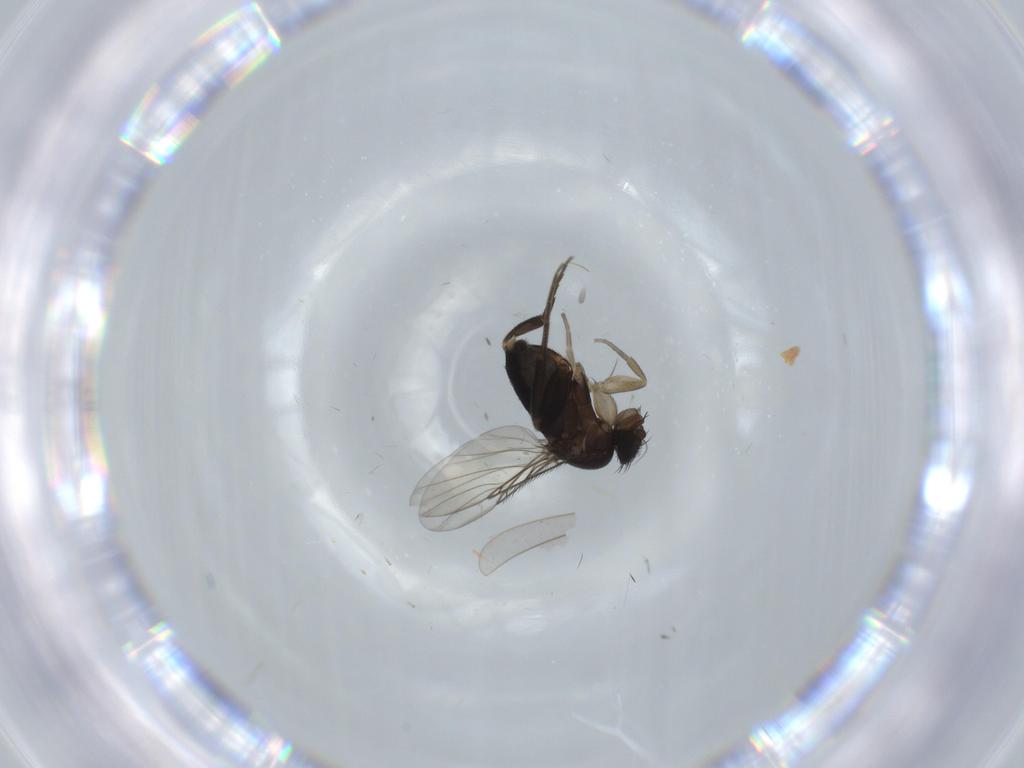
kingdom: Animalia
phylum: Arthropoda
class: Insecta
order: Diptera
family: Phoridae
